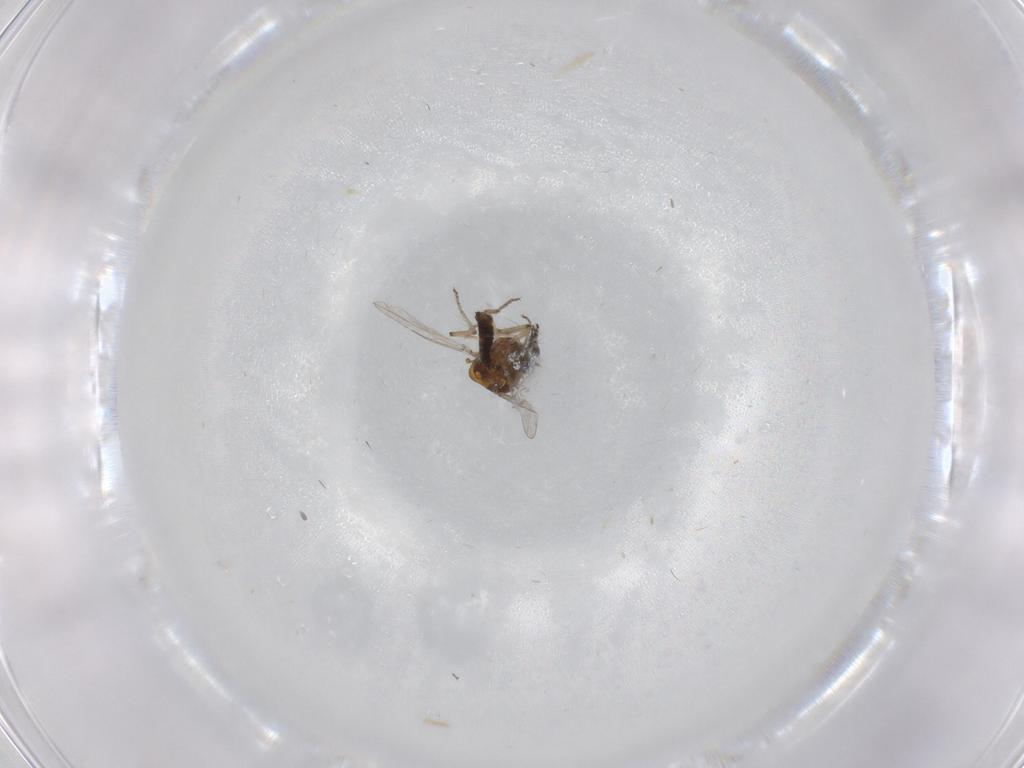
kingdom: Animalia
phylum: Arthropoda
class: Insecta
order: Diptera
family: Ceratopogonidae
